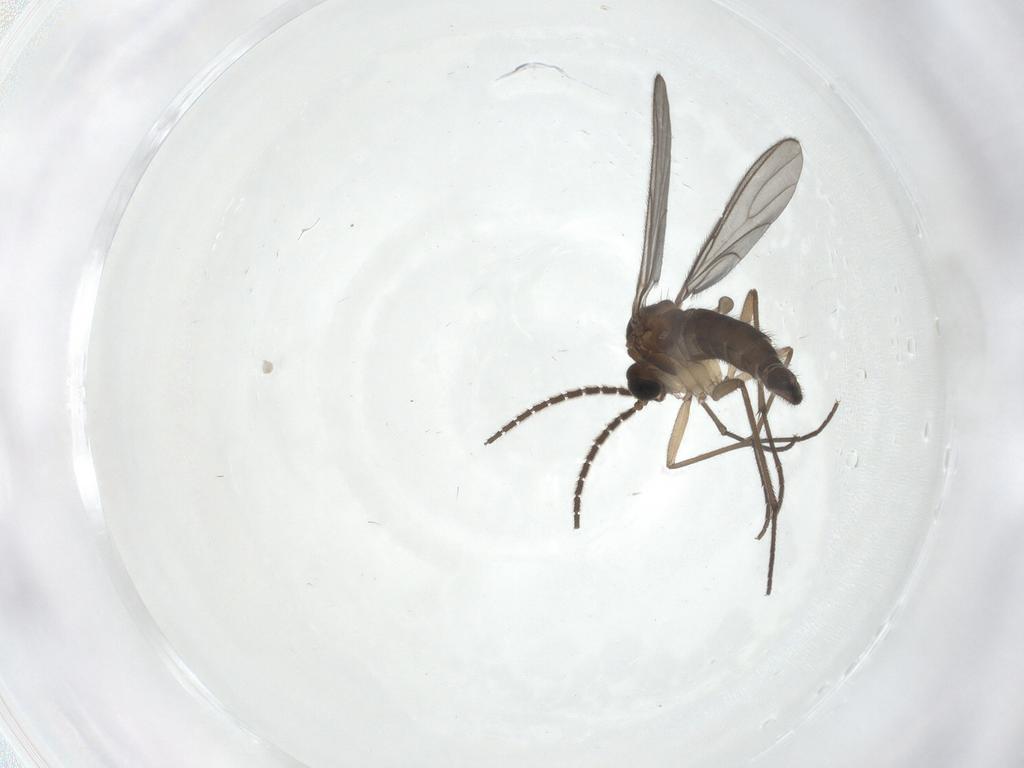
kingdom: Animalia
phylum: Arthropoda
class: Insecta
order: Diptera
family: Sciaridae
